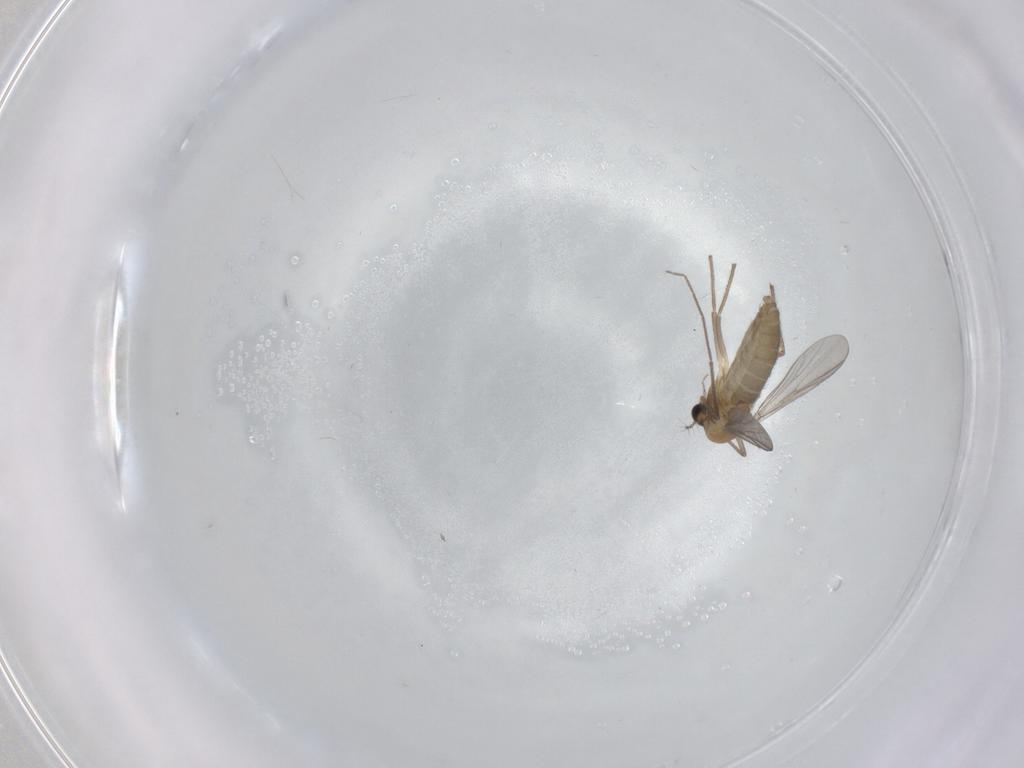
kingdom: Animalia
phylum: Arthropoda
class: Insecta
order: Diptera
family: Chironomidae
